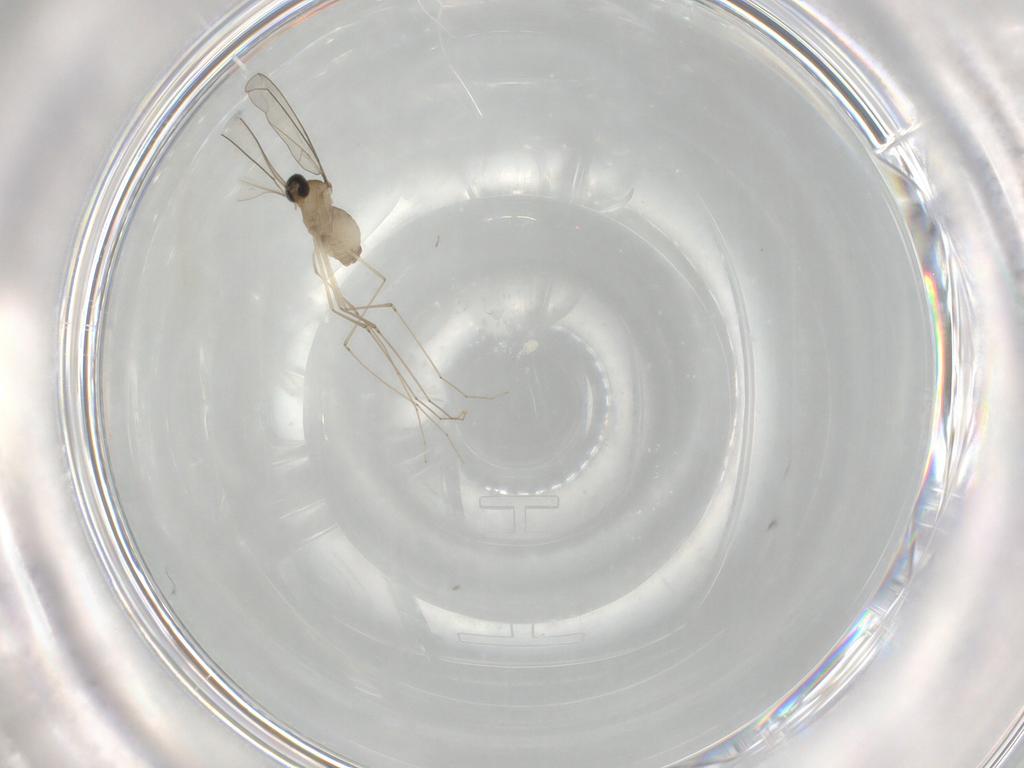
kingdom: Animalia
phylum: Arthropoda
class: Insecta
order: Diptera
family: Cecidomyiidae
